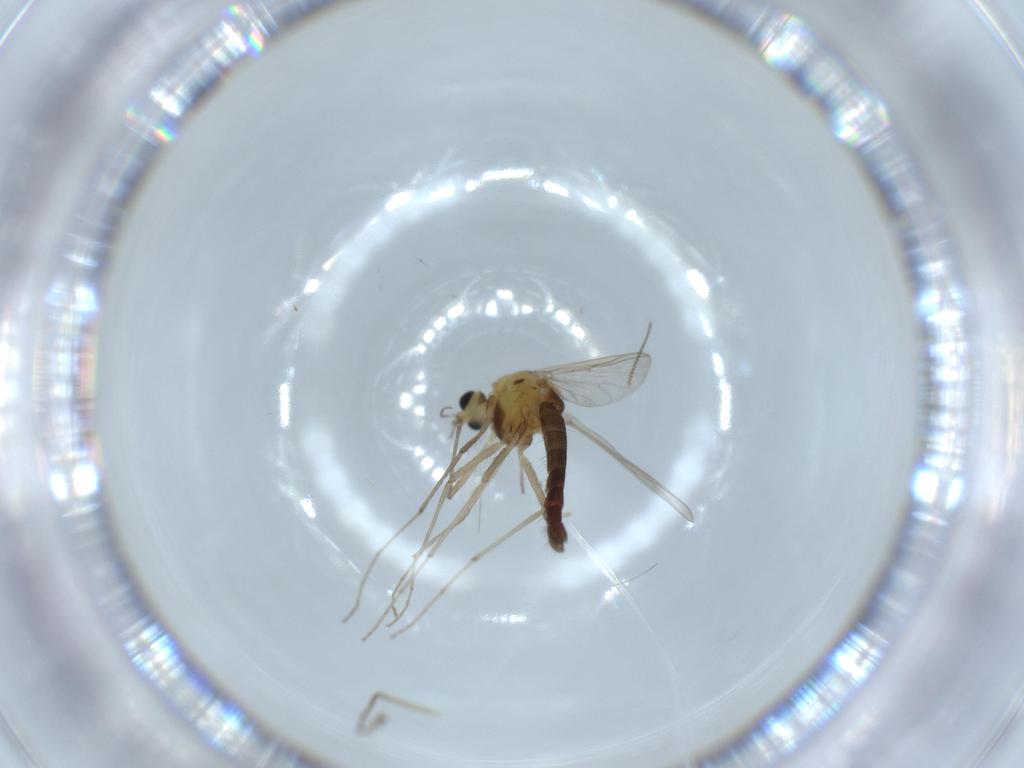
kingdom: Animalia
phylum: Arthropoda
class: Insecta
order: Diptera
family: Chironomidae
